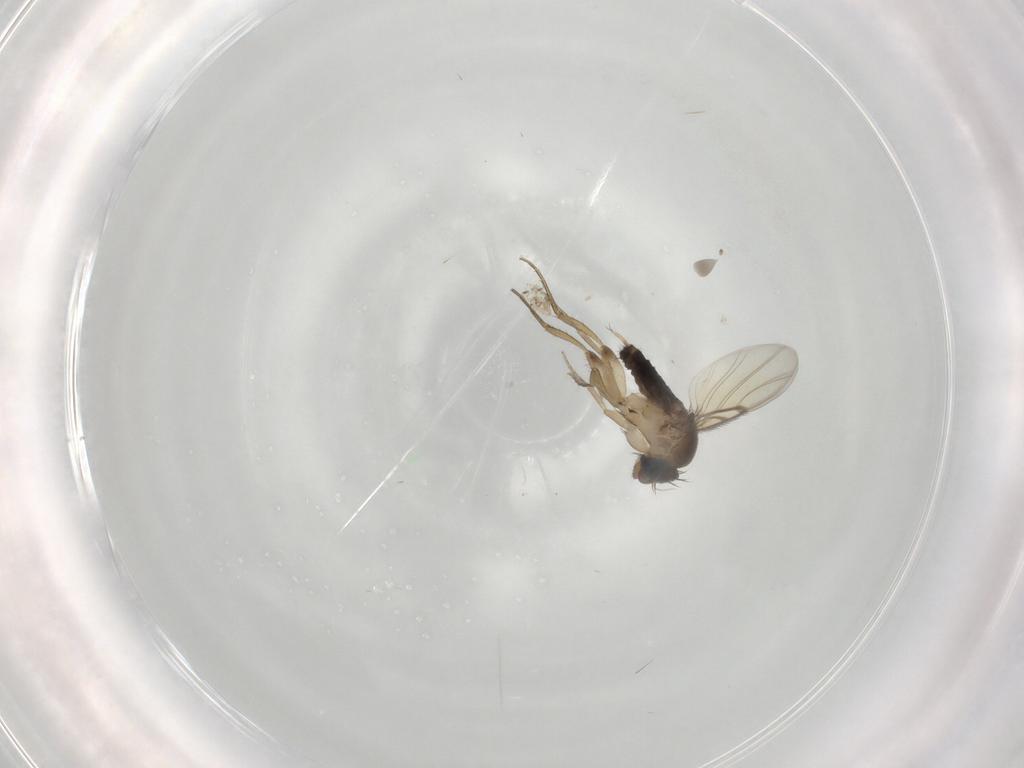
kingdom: Animalia
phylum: Arthropoda
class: Insecta
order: Diptera
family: Phoridae
